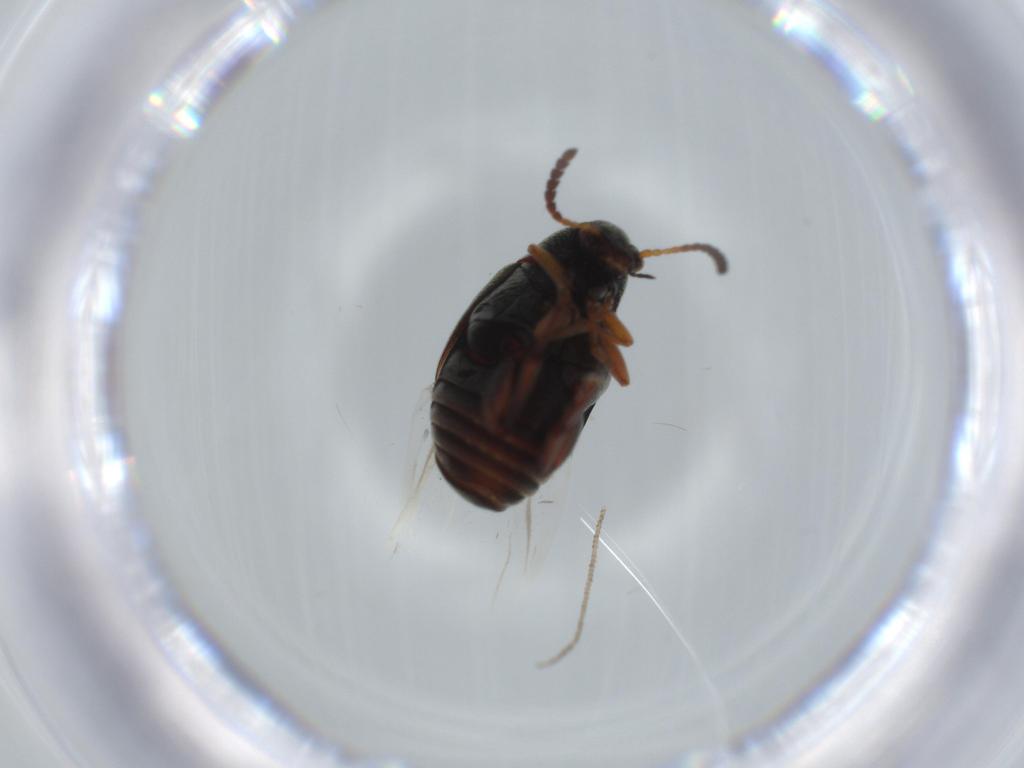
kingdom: Animalia
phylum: Arthropoda
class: Insecta
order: Coleoptera
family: Chrysomelidae
